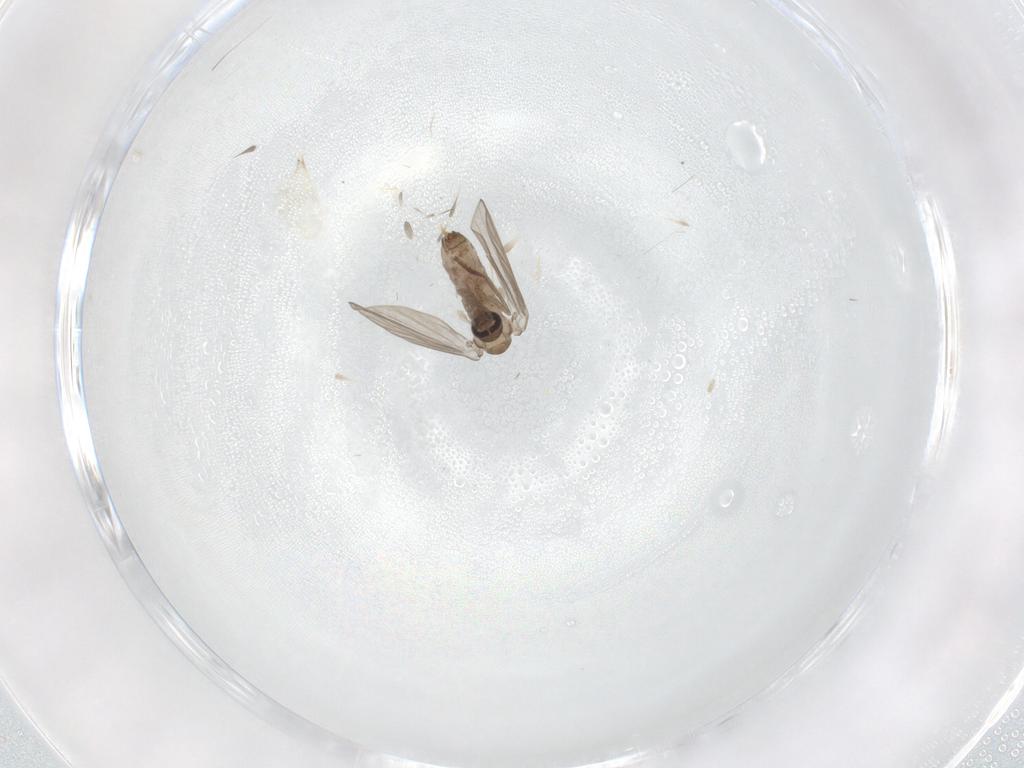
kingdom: Animalia
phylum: Arthropoda
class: Insecta
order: Diptera
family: Psychodidae
